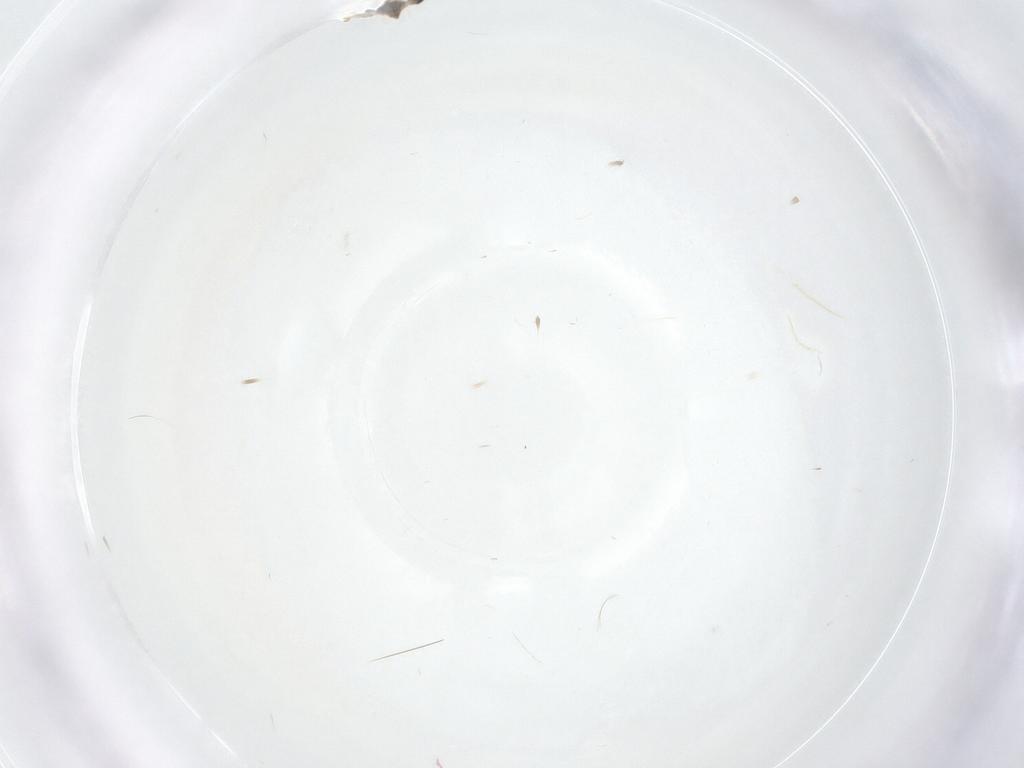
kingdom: Animalia
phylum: Arthropoda
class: Insecta
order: Diptera
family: Cecidomyiidae
